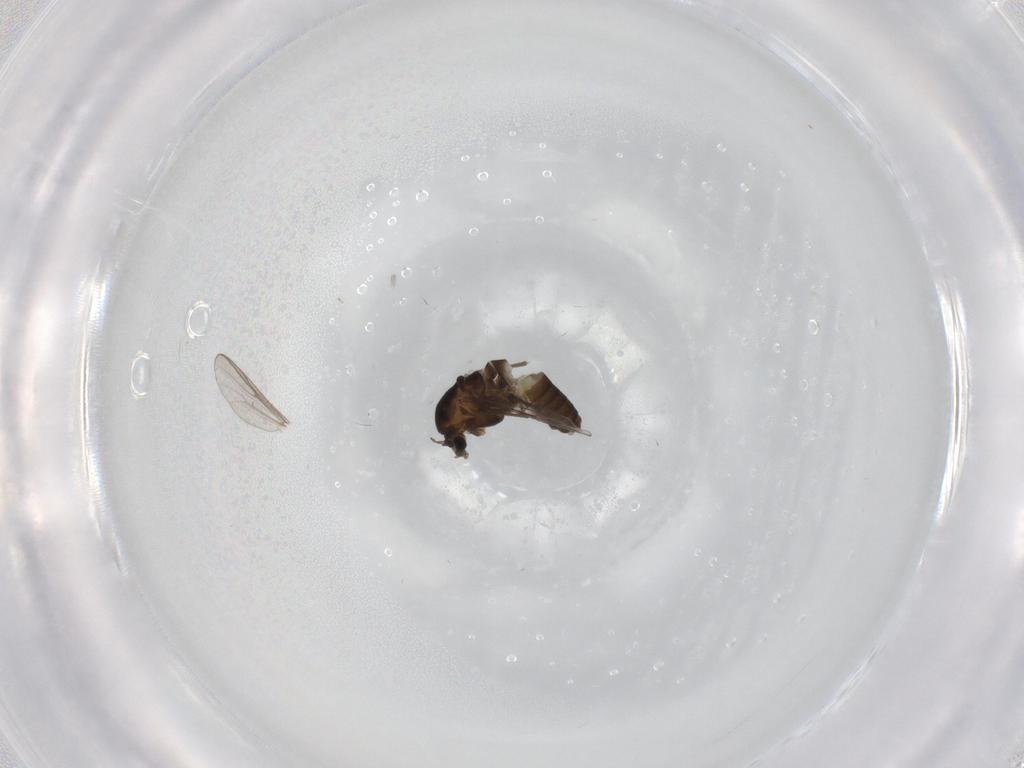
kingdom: Animalia
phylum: Arthropoda
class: Insecta
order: Diptera
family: Chironomidae
